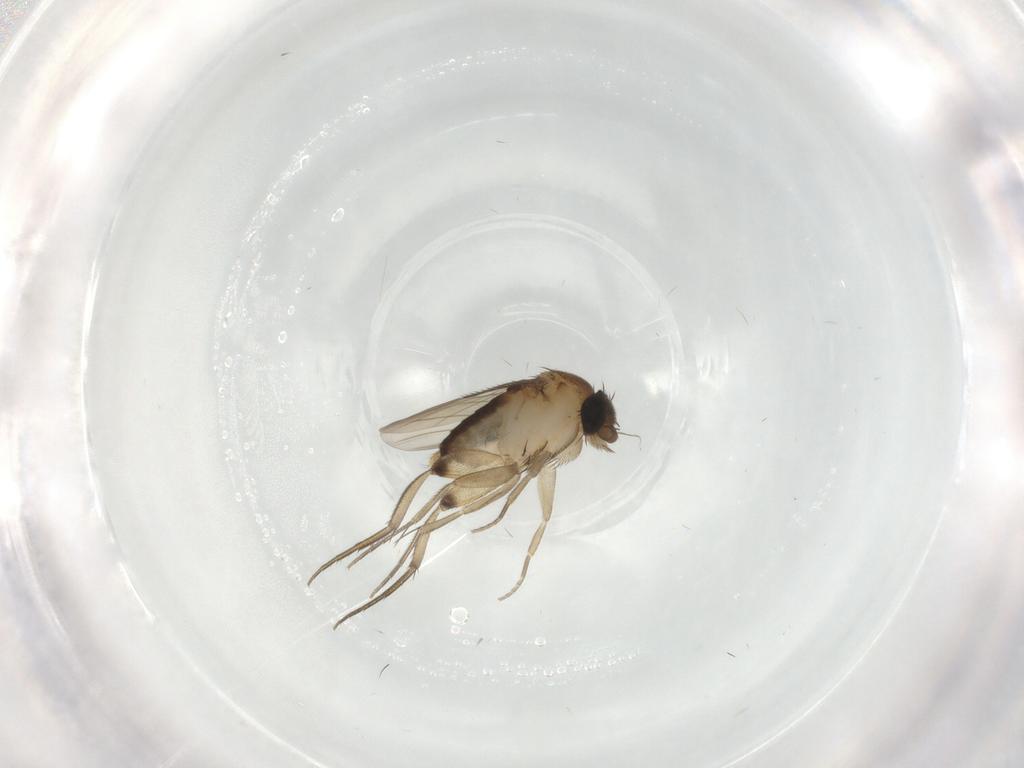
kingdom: Animalia
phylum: Arthropoda
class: Insecta
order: Diptera
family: Phoridae
